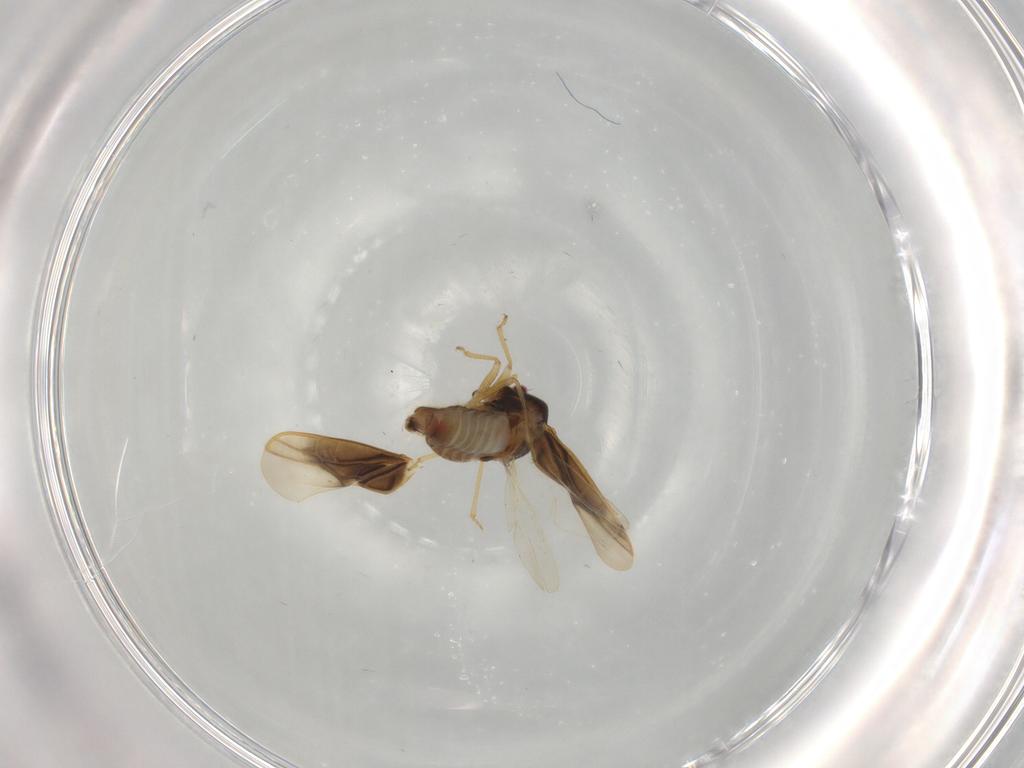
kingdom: Animalia
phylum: Arthropoda
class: Insecta
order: Hemiptera
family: Schizopteridae
